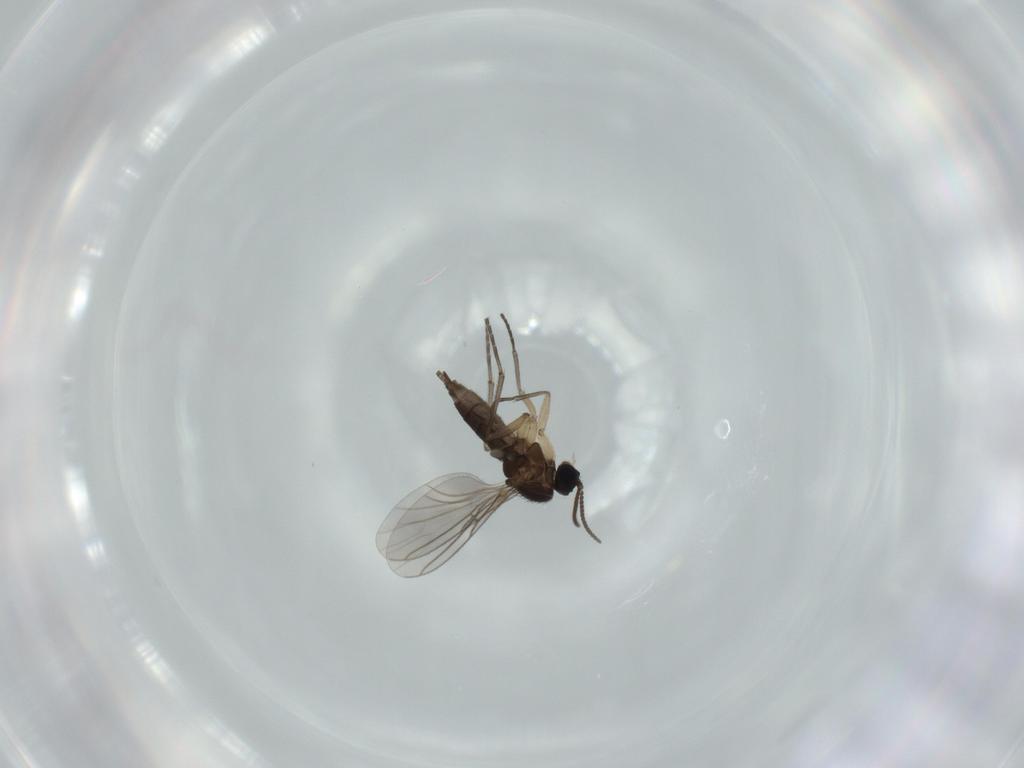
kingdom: Animalia
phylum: Arthropoda
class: Insecta
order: Diptera
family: Sciaridae
